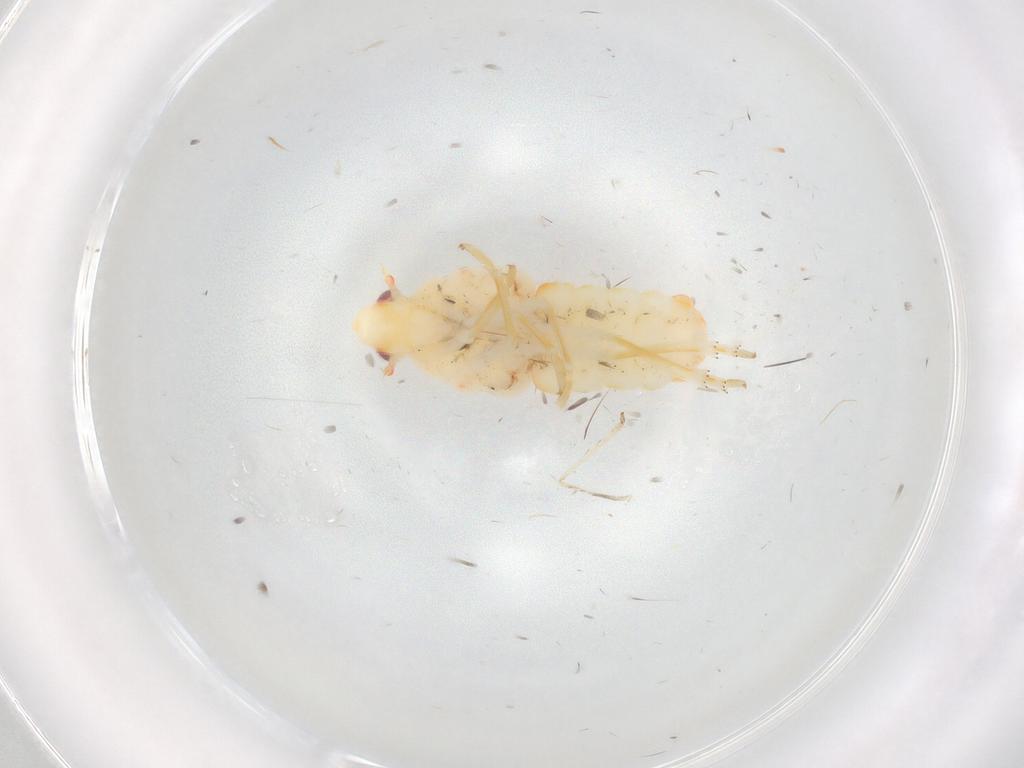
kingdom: Animalia
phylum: Arthropoda
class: Insecta
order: Hemiptera
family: Flatidae
